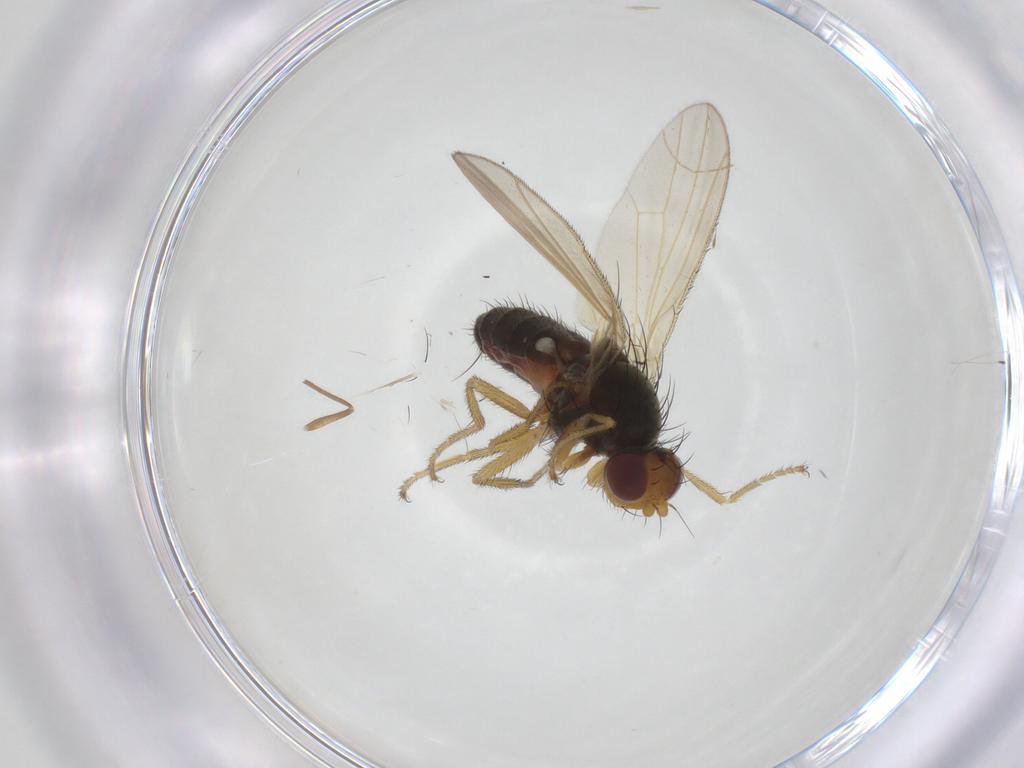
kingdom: Animalia
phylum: Arthropoda
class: Insecta
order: Diptera
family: Heleomyzidae
